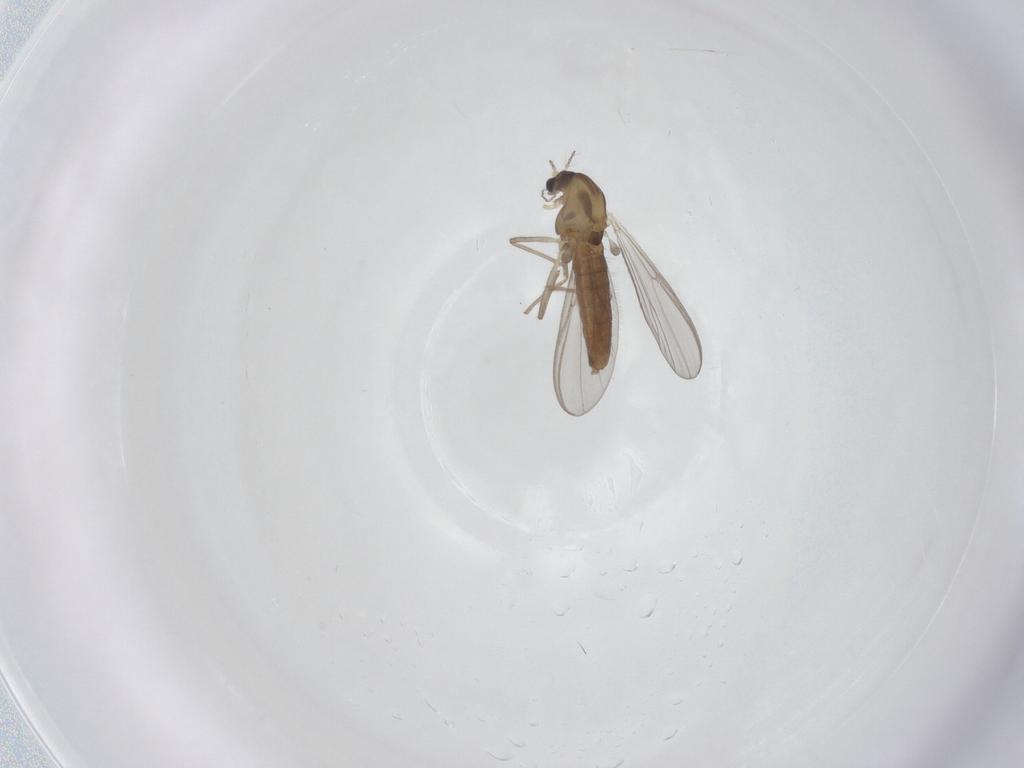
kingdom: Animalia
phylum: Arthropoda
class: Insecta
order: Diptera
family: Chironomidae
